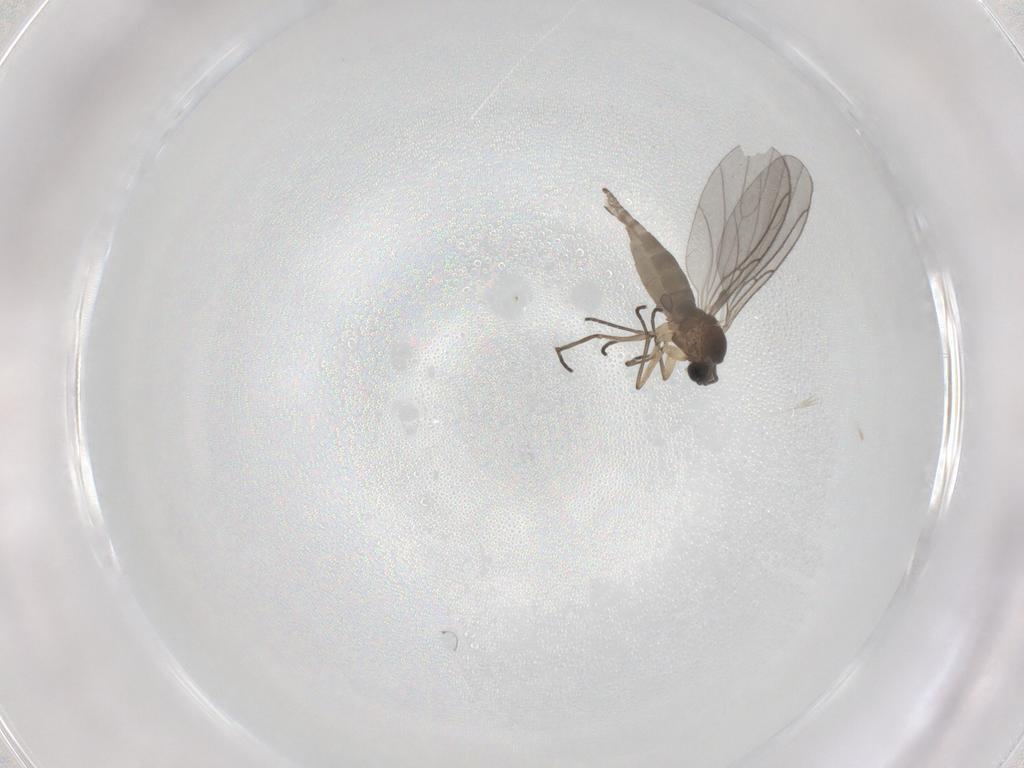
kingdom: Animalia
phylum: Arthropoda
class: Insecta
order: Diptera
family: Sciaridae
